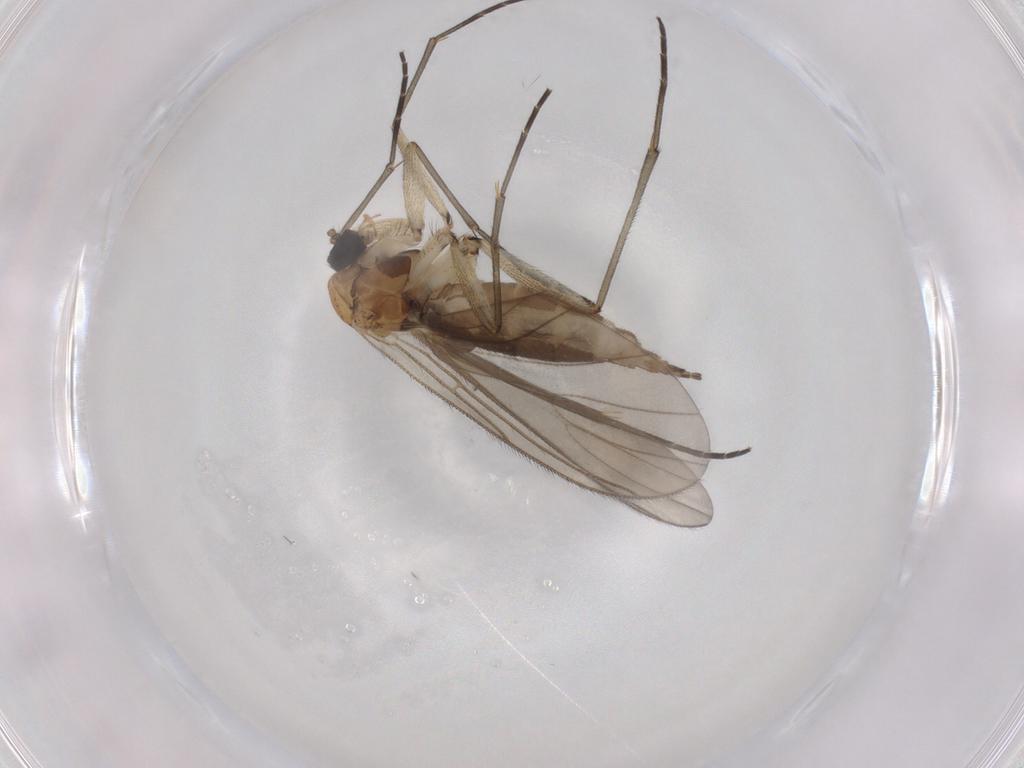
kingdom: Animalia
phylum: Arthropoda
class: Insecta
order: Diptera
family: Sciaridae
